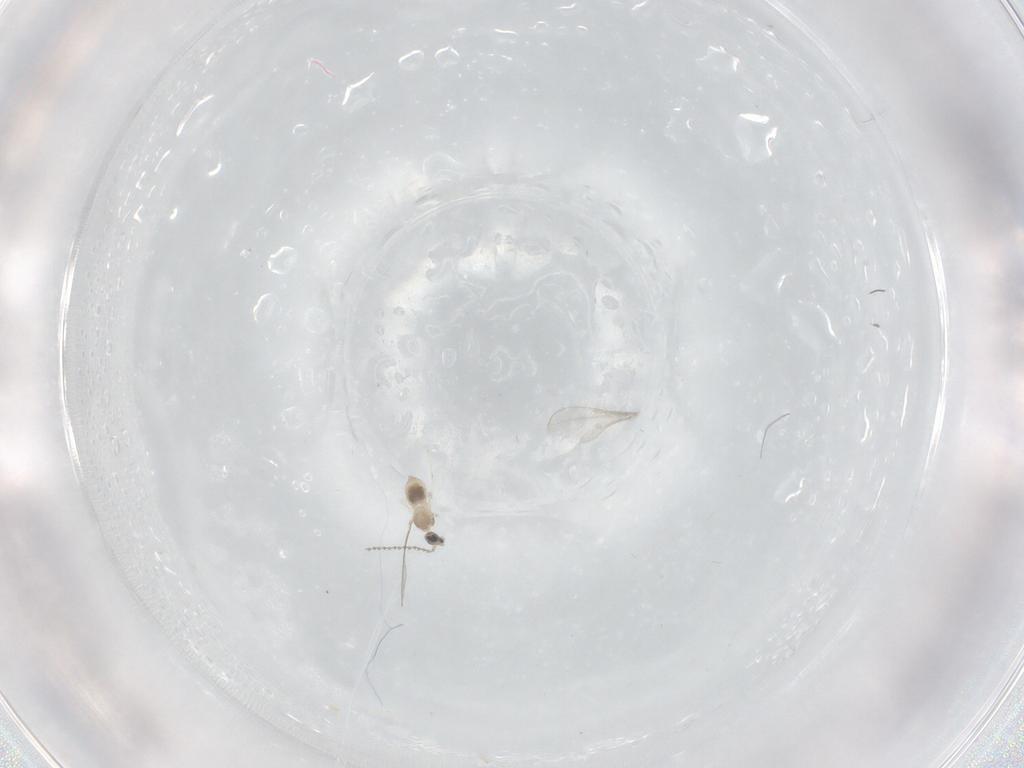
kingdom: Animalia
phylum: Arthropoda
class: Insecta
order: Diptera
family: Cecidomyiidae
